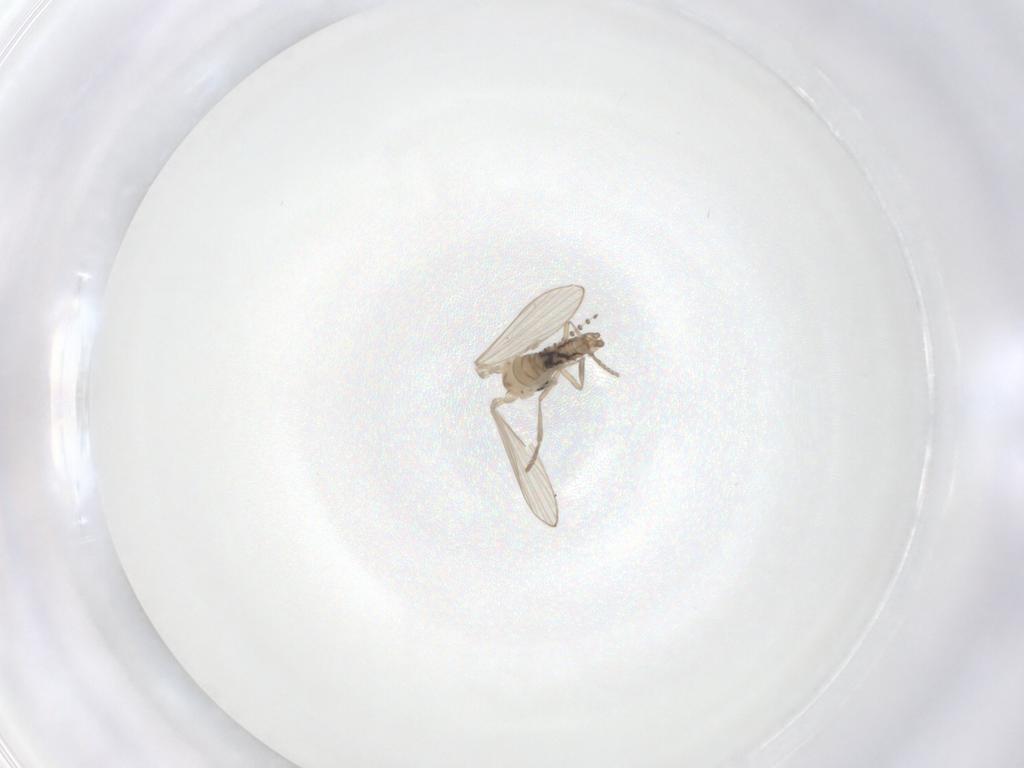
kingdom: Animalia
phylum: Arthropoda
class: Insecta
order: Diptera
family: Psychodidae
